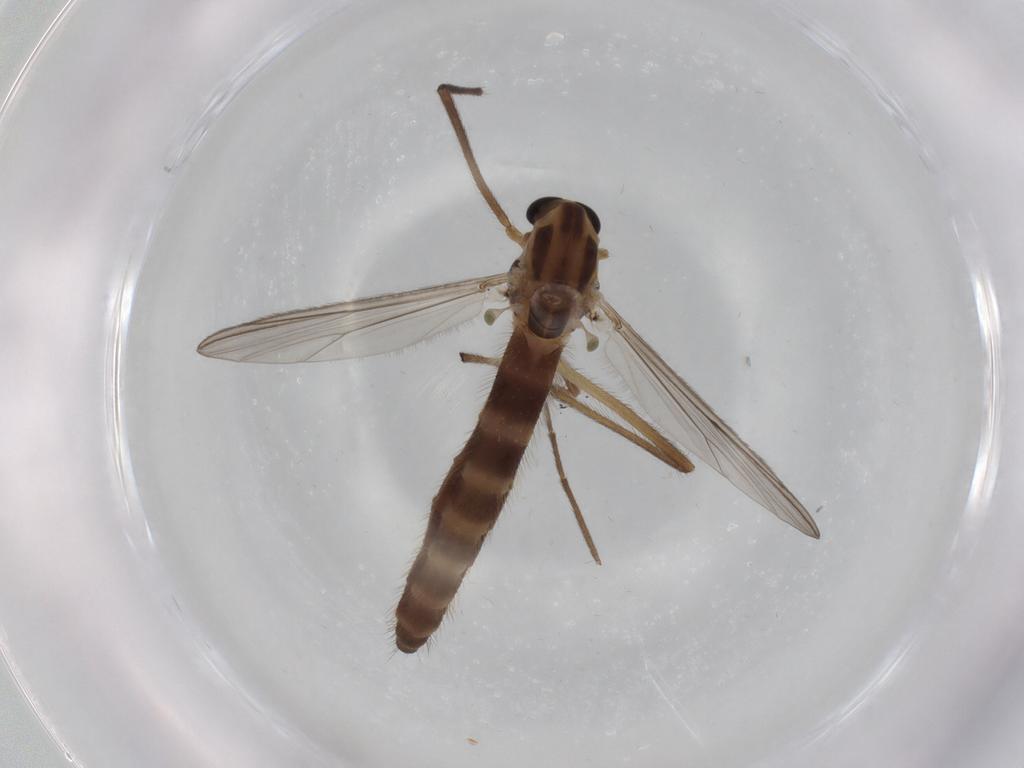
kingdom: Animalia
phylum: Arthropoda
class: Insecta
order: Diptera
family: Chironomidae
